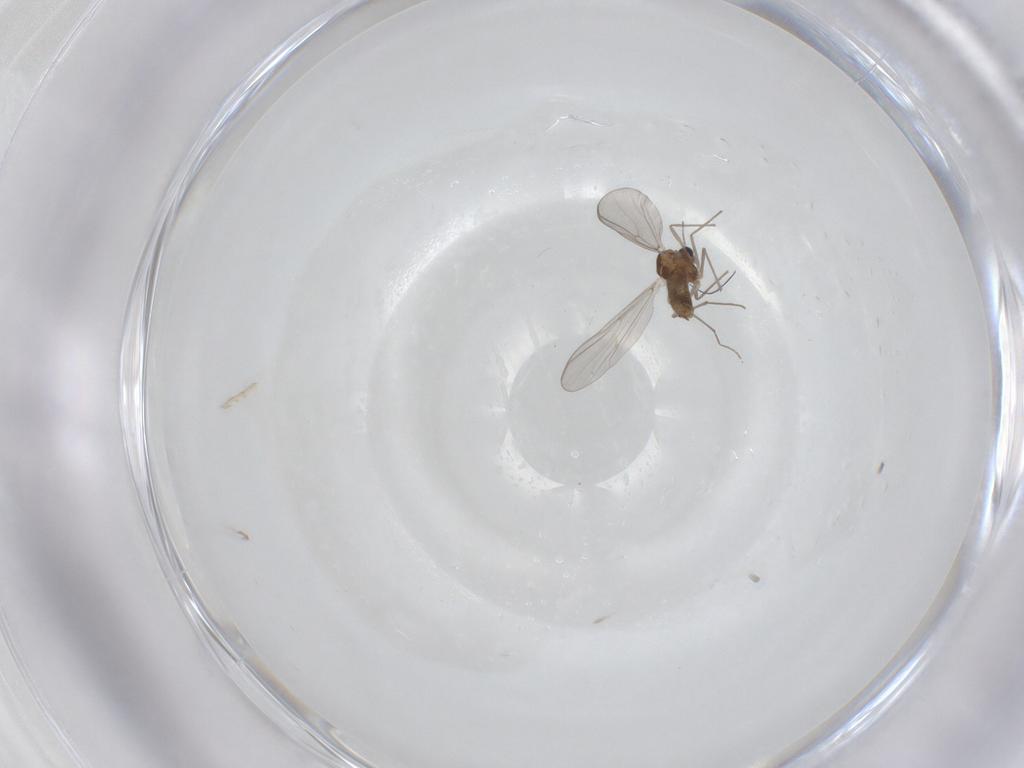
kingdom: Animalia
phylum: Arthropoda
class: Insecta
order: Diptera
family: Chironomidae
